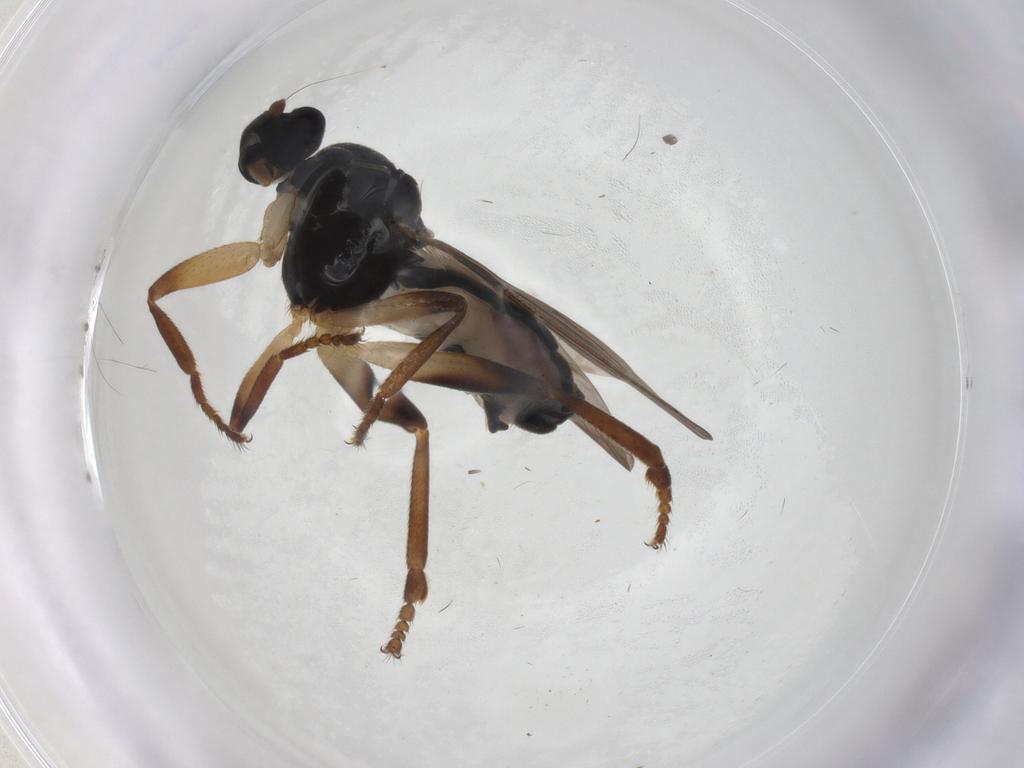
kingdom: Animalia
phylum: Arthropoda
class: Insecta
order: Diptera
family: Sphaeroceridae
